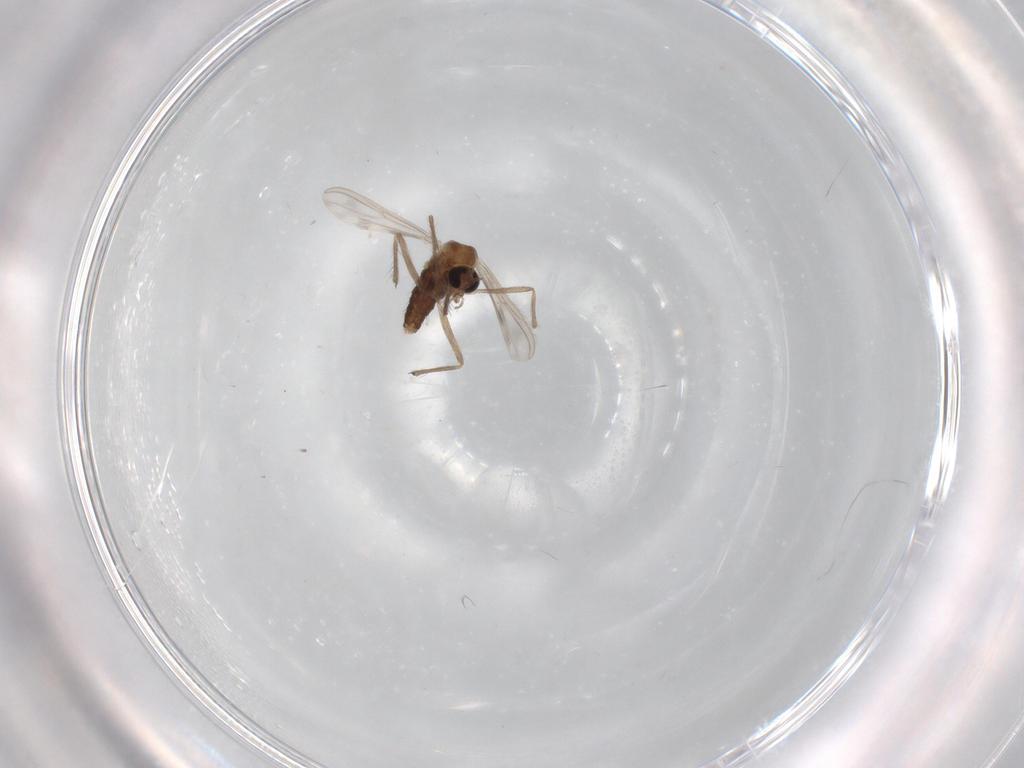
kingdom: Animalia
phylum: Arthropoda
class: Insecta
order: Diptera
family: Chironomidae
